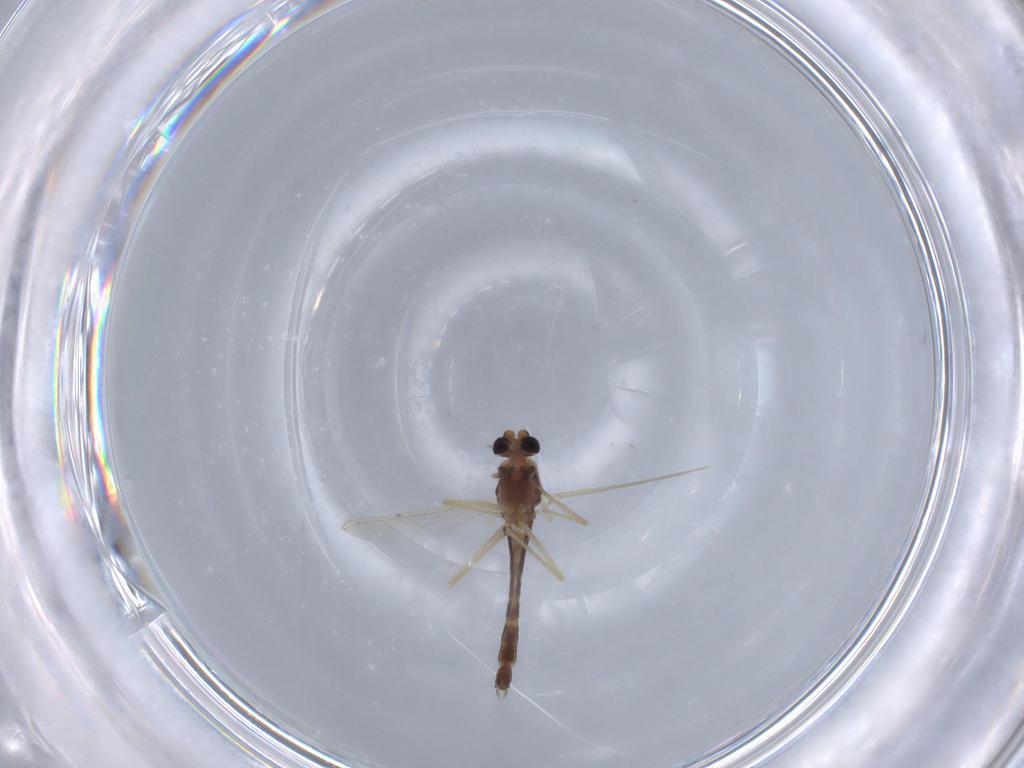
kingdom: Animalia
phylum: Arthropoda
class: Insecta
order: Diptera
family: Chironomidae
